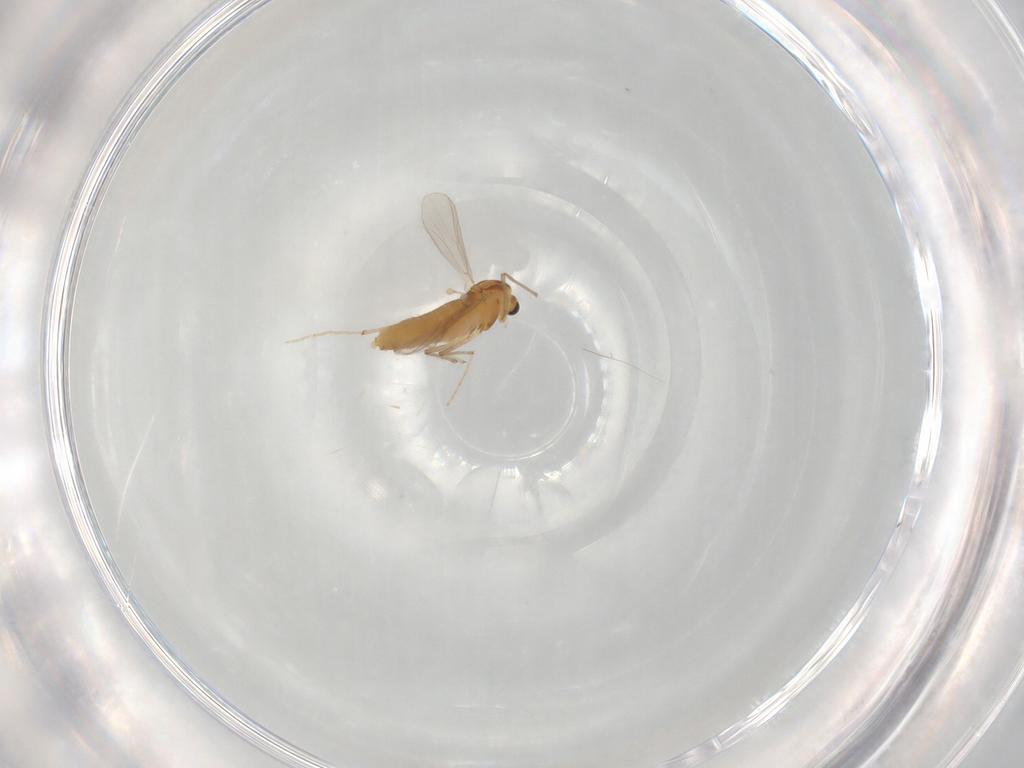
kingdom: Animalia
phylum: Arthropoda
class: Insecta
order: Diptera
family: Chironomidae
